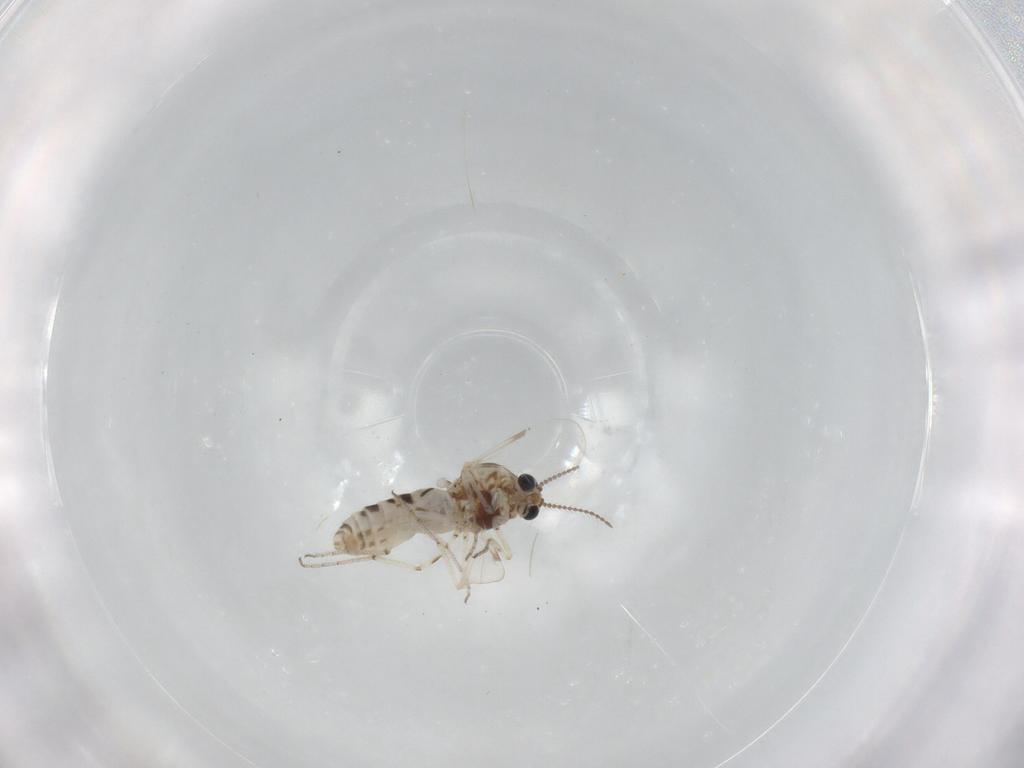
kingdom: Animalia
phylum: Arthropoda
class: Insecta
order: Diptera
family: Ceratopogonidae
